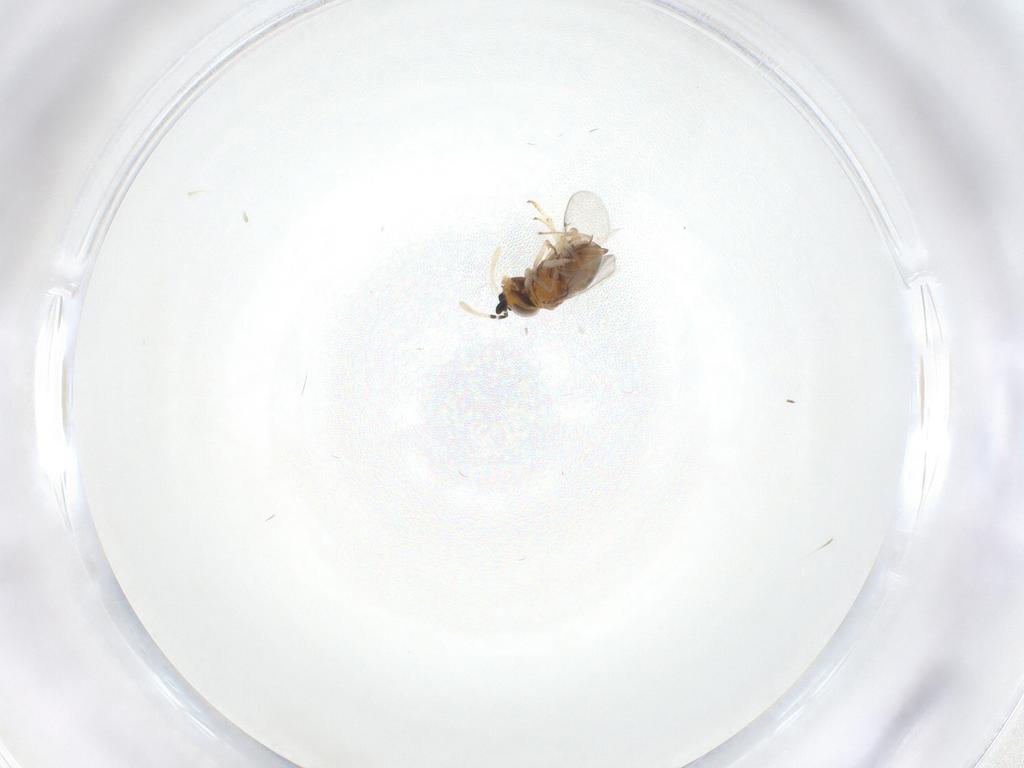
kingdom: Animalia
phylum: Arthropoda
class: Insecta
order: Hymenoptera
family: Encyrtidae
